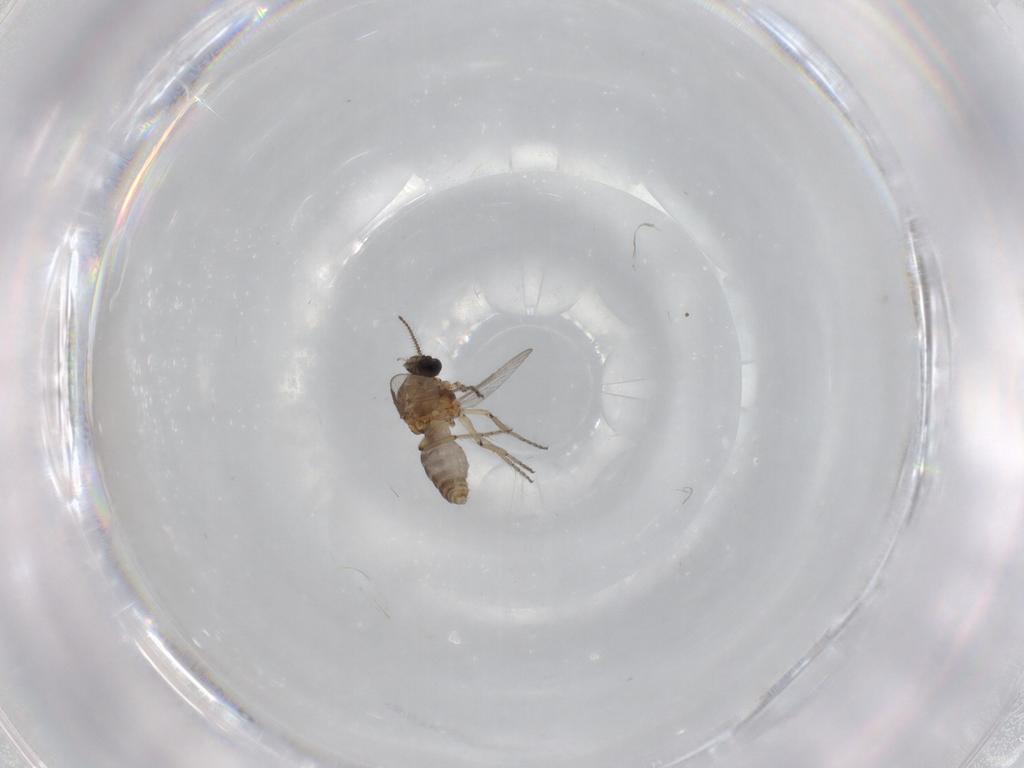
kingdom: Animalia
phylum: Arthropoda
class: Insecta
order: Diptera
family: Ceratopogonidae
